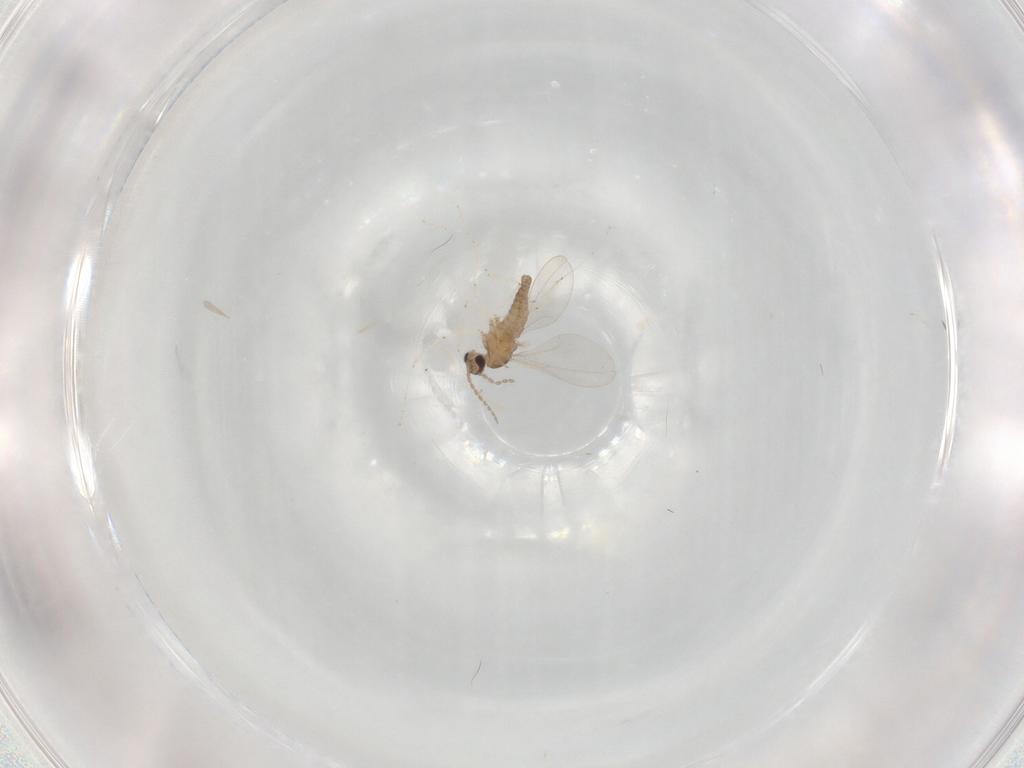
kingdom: Animalia
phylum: Arthropoda
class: Insecta
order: Diptera
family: Cecidomyiidae
